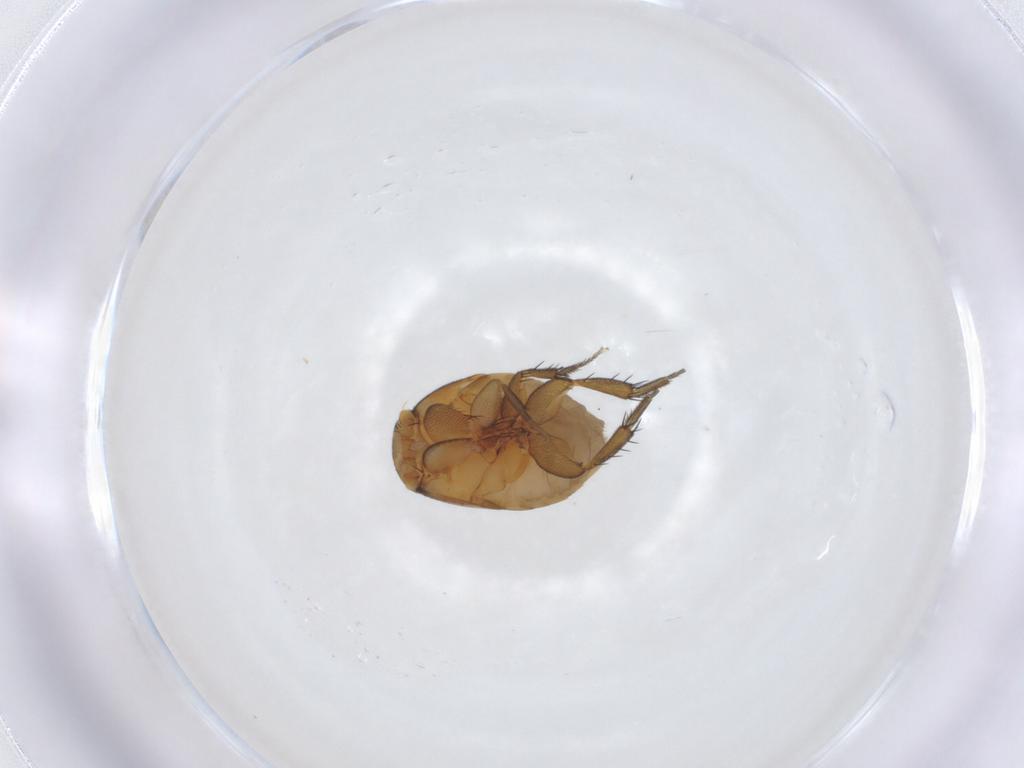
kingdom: Animalia
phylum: Arthropoda
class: Insecta
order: Diptera
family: Phoridae
